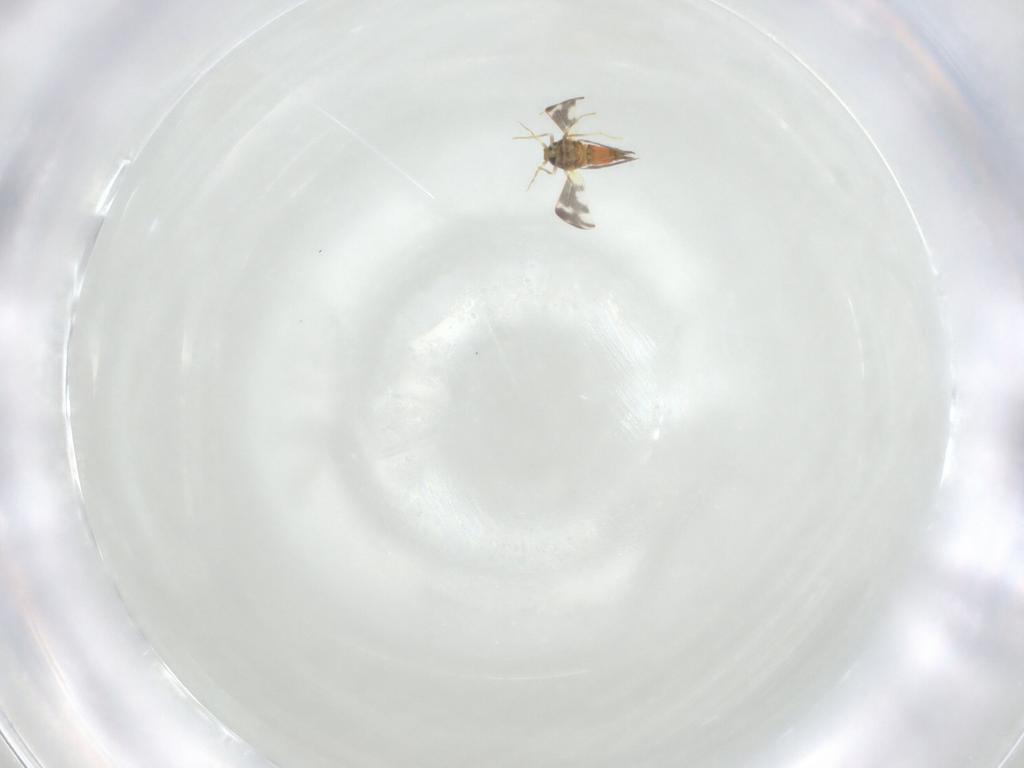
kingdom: Animalia
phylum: Arthropoda
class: Insecta
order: Hemiptera
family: Aleyrodidae
